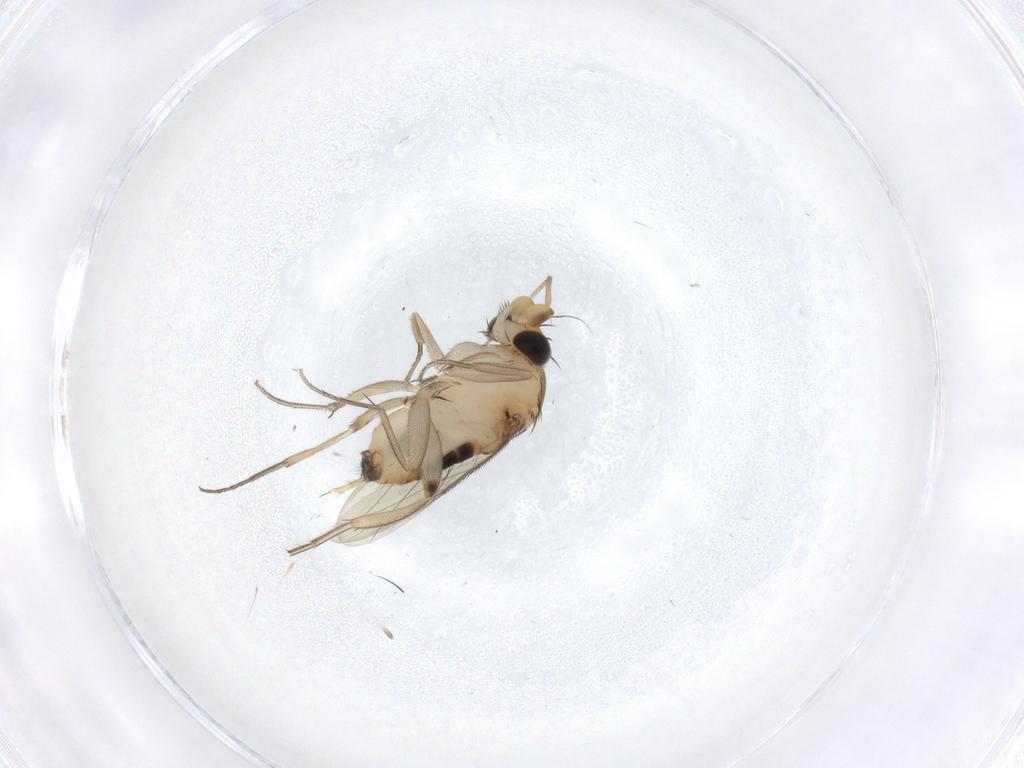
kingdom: Animalia
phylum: Arthropoda
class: Insecta
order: Diptera
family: Phoridae
